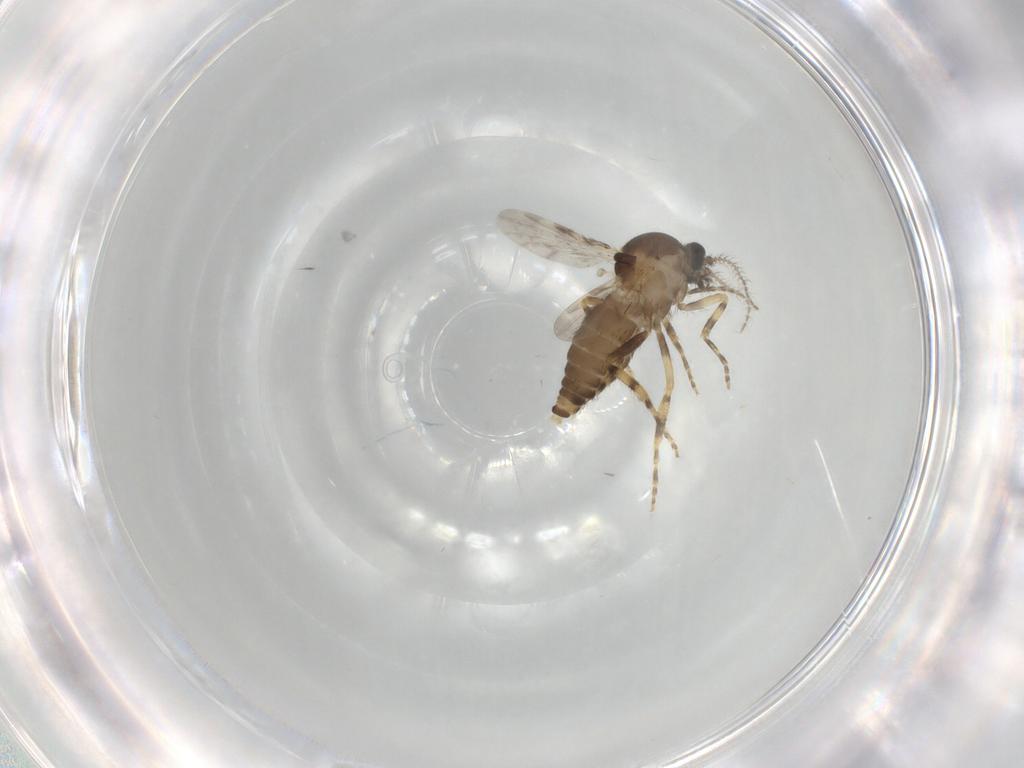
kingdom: Animalia
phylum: Arthropoda
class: Insecta
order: Diptera
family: Ceratopogonidae
